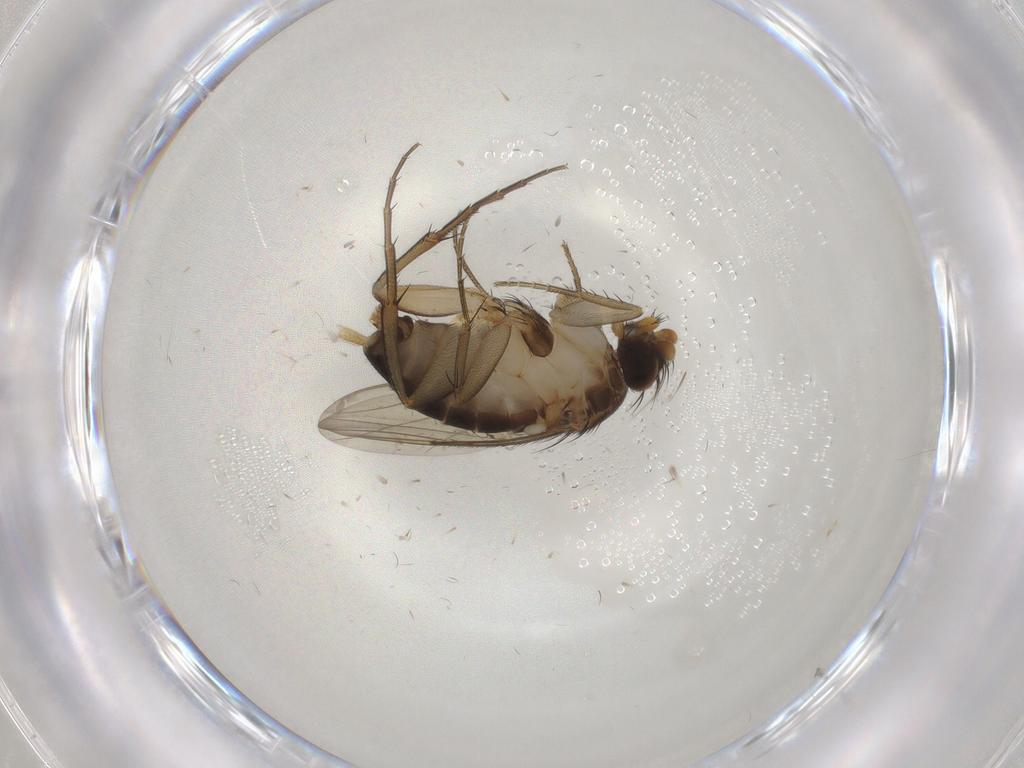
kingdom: Animalia
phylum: Arthropoda
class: Insecta
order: Diptera
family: Phoridae
